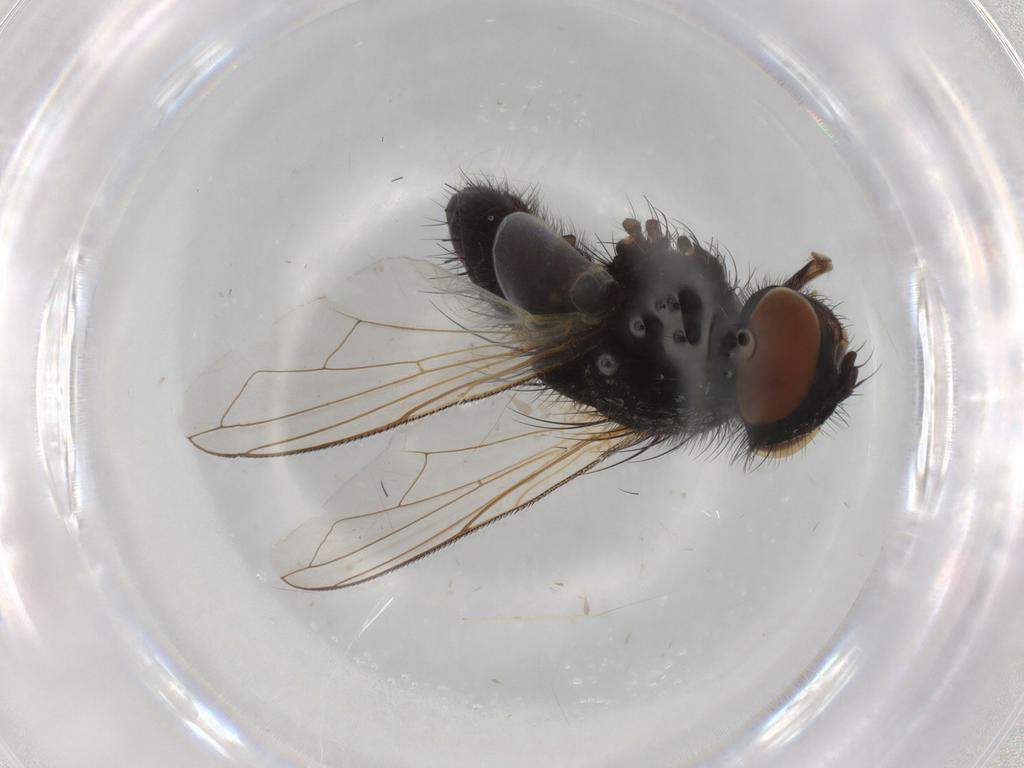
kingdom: Animalia
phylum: Arthropoda
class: Insecta
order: Diptera
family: Tachinidae
